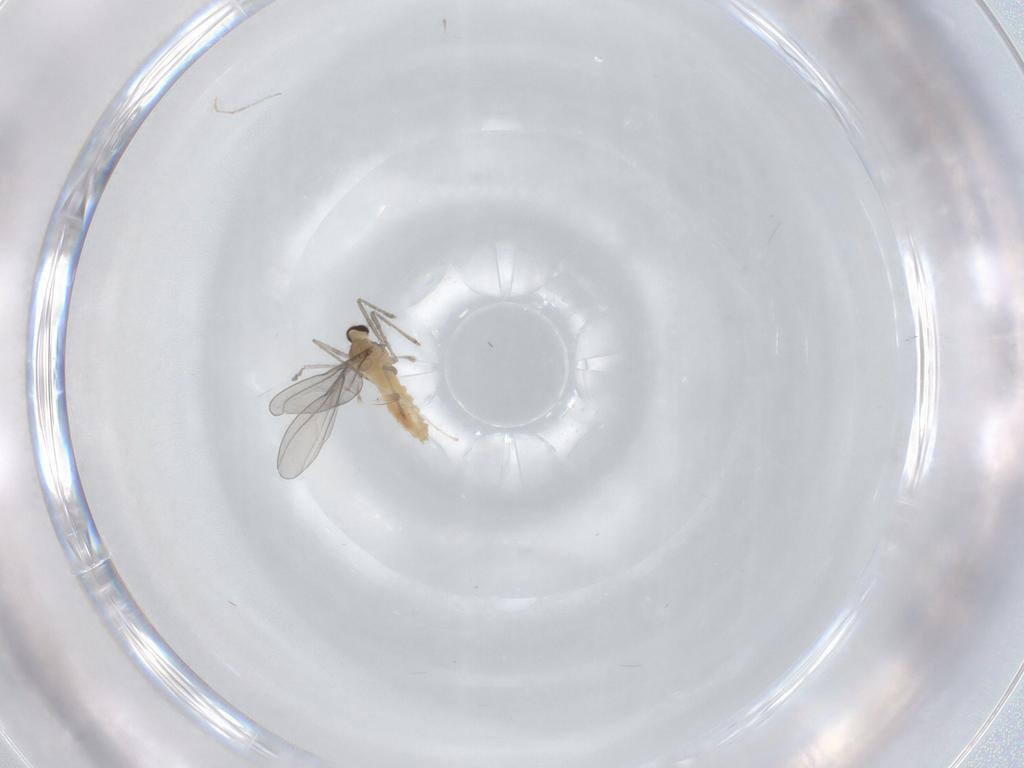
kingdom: Animalia
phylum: Arthropoda
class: Insecta
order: Diptera
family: Cecidomyiidae
